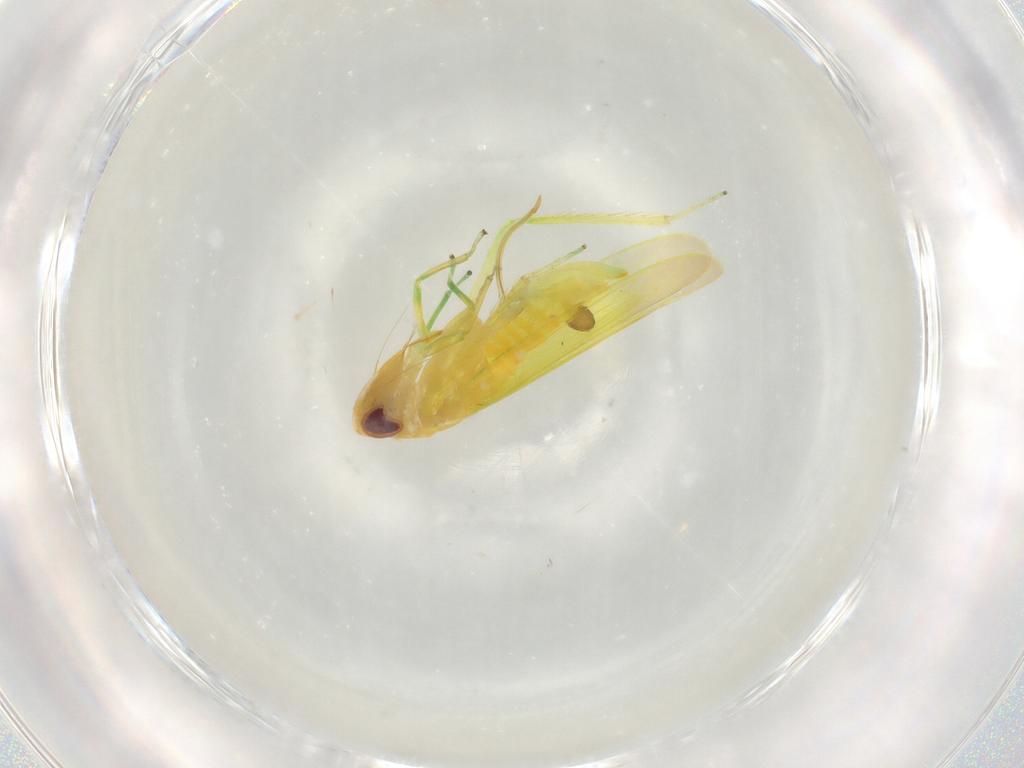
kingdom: Animalia
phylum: Arthropoda
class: Insecta
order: Hemiptera
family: Cicadellidae
